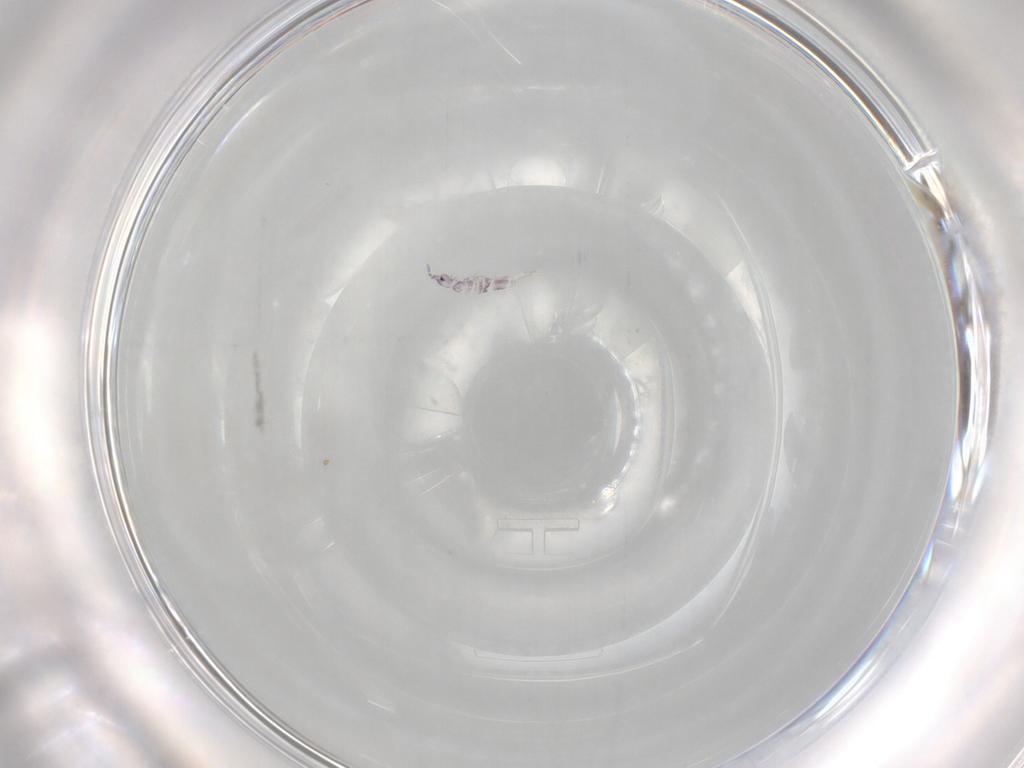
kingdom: Animalia
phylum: Arthropoda
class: Collembola
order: Entomobryomorpha
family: Entomobryidae
